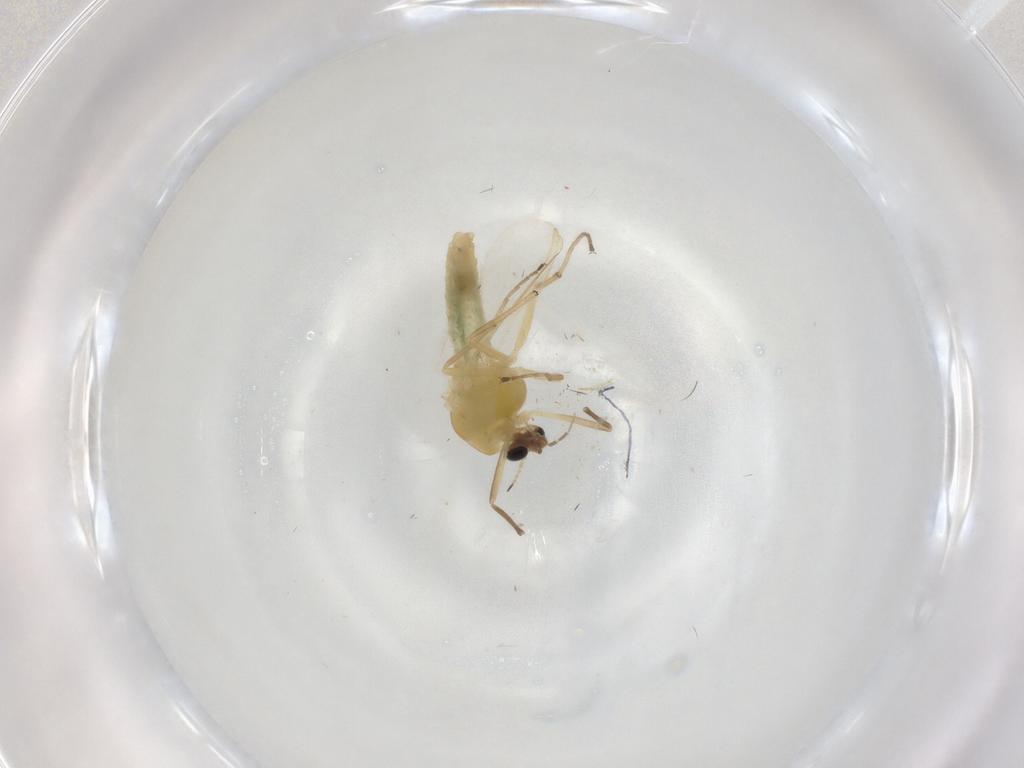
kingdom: Animalia
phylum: Arthropoda
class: Insecta
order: Diptera
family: Chironomidae
